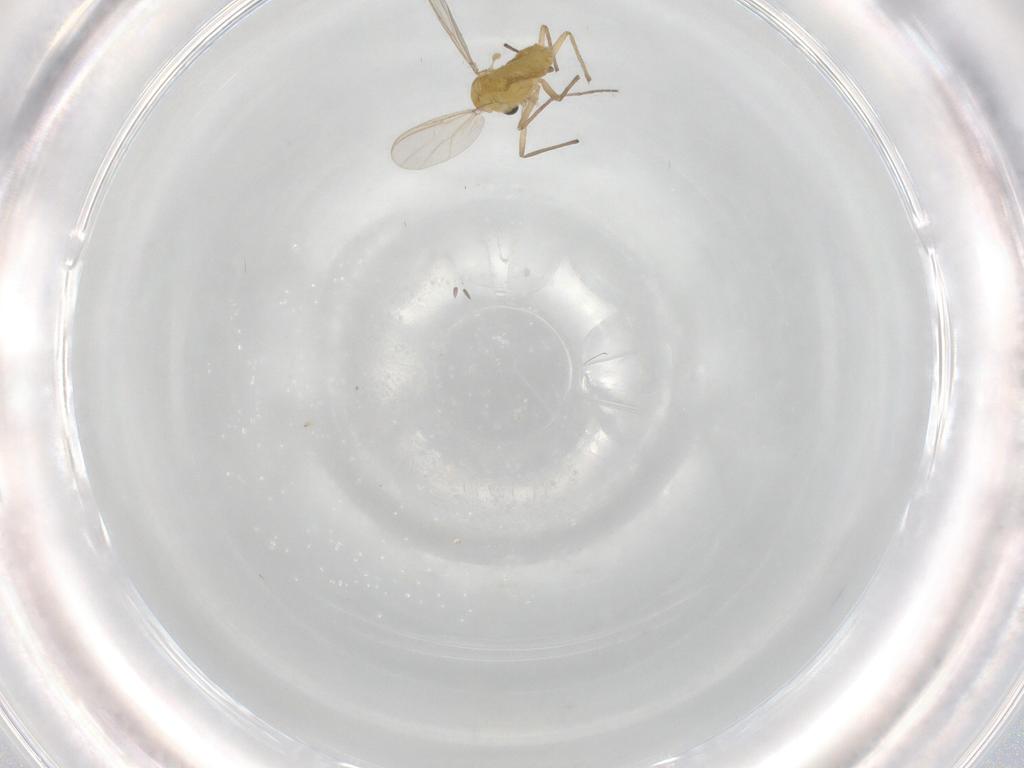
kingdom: Animalia
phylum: Arthropoda
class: Insecta
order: Diptera
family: Chironomidae
